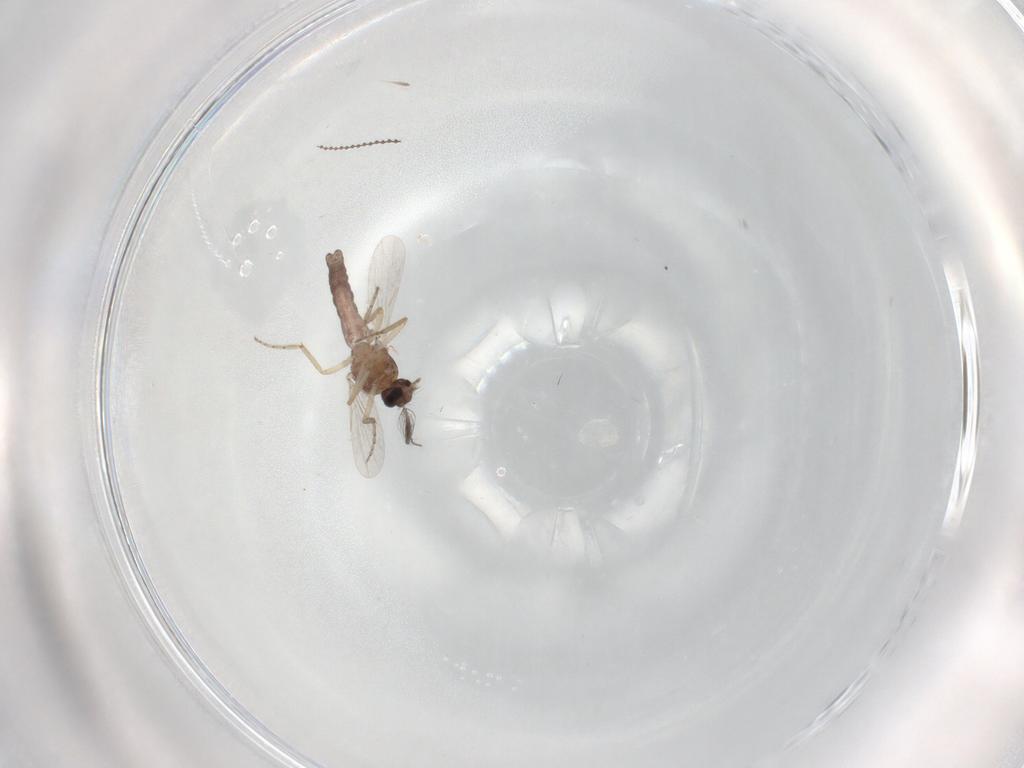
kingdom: Animalia
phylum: Arthropoda
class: Insecta
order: Diptera
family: Ceratopogonidae
